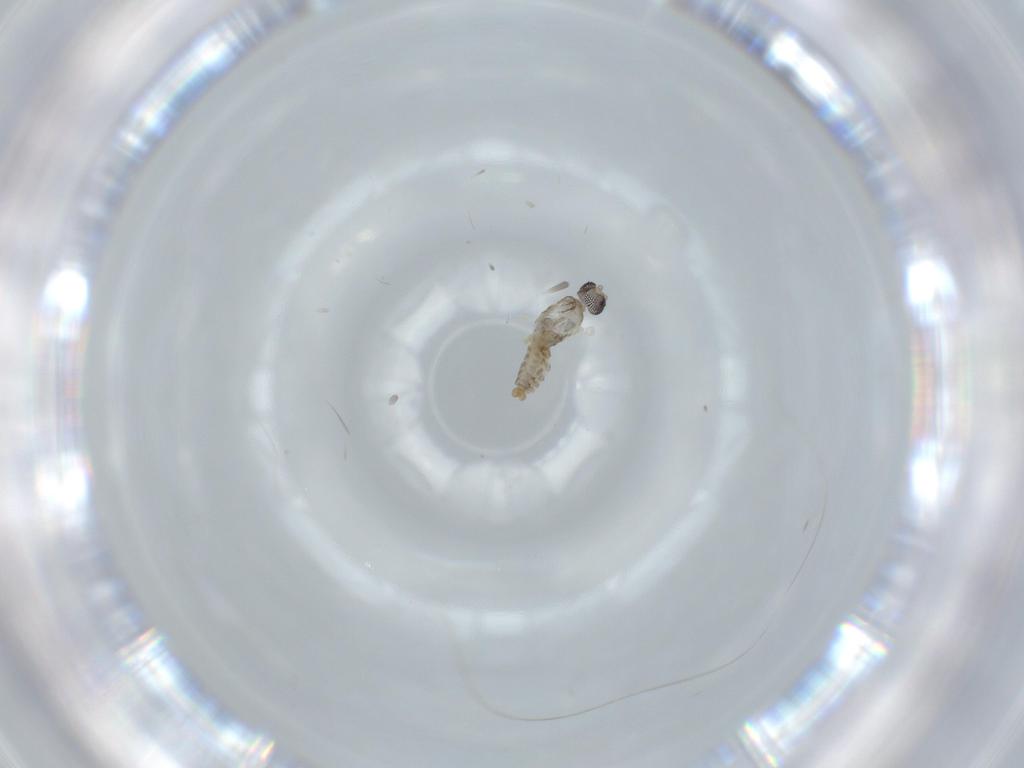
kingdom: Animalia
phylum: Arthropoda
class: Insecta
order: Diptera
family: Cecidomyiidae
